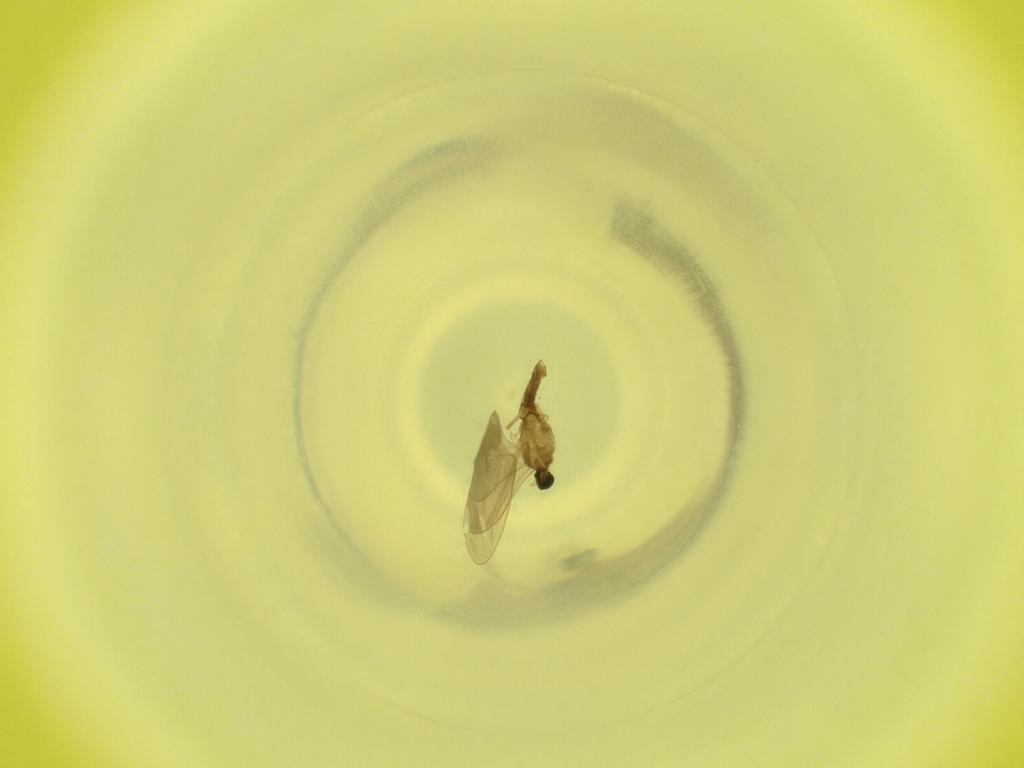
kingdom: Animalia
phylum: Arthropoda
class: Insecta
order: Diptera
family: Cecidomyiidae
